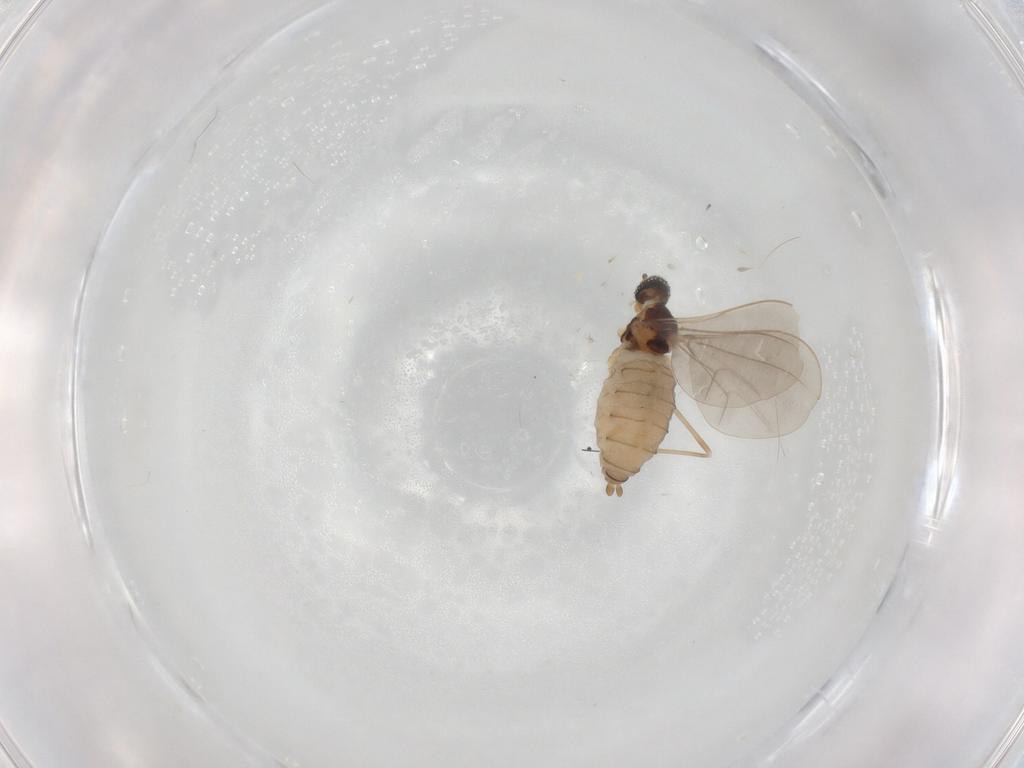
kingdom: Animalia
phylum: Arthropoda
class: Insecta
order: Diptera
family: Cecidomyiidae
